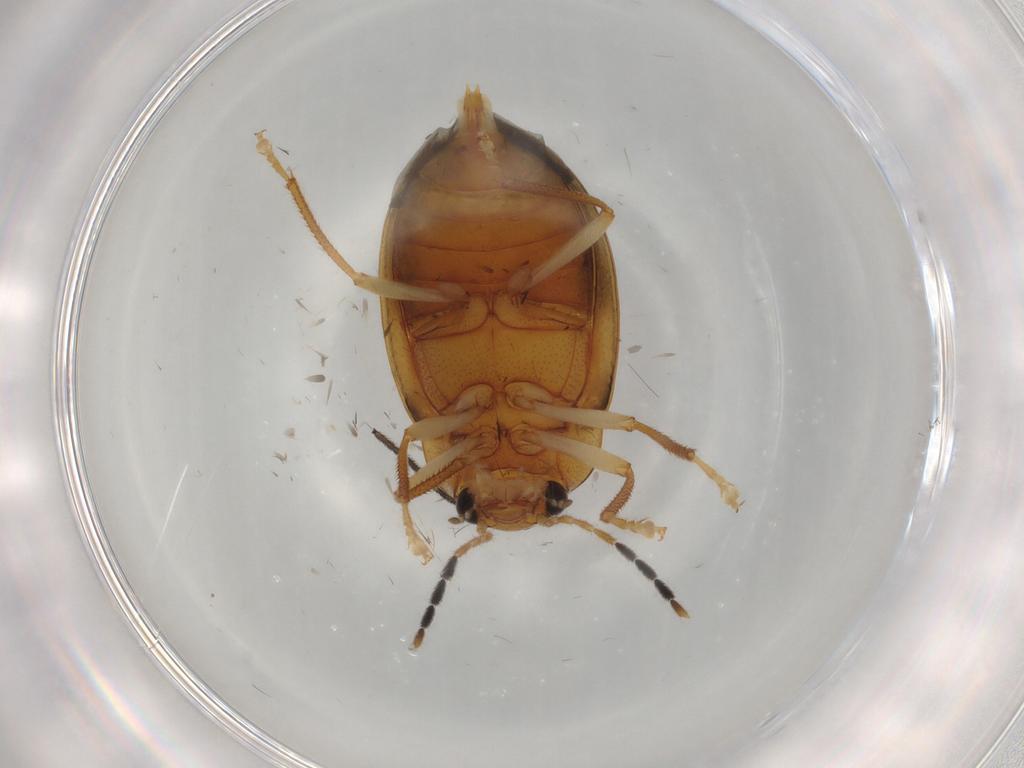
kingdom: Animalia
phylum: Arthropoda
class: Insecta
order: Coleoptera
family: Ptilodactylidae
